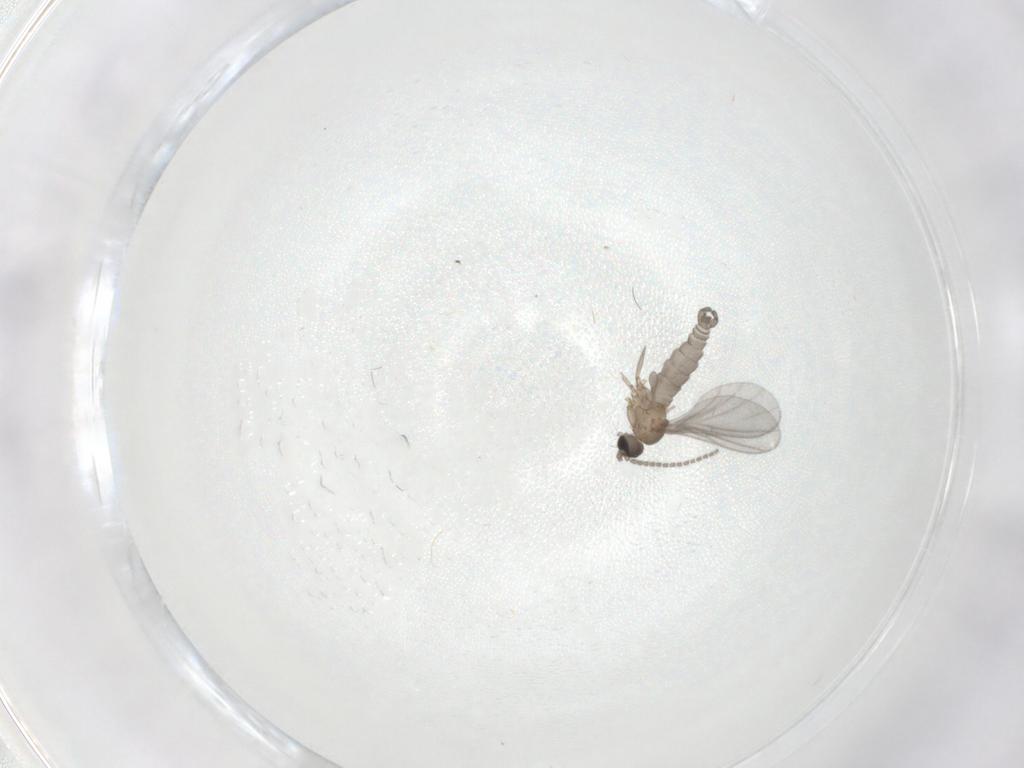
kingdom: Animalia
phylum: Arthropoda
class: Insecta
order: Diptera
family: Sciaridae
